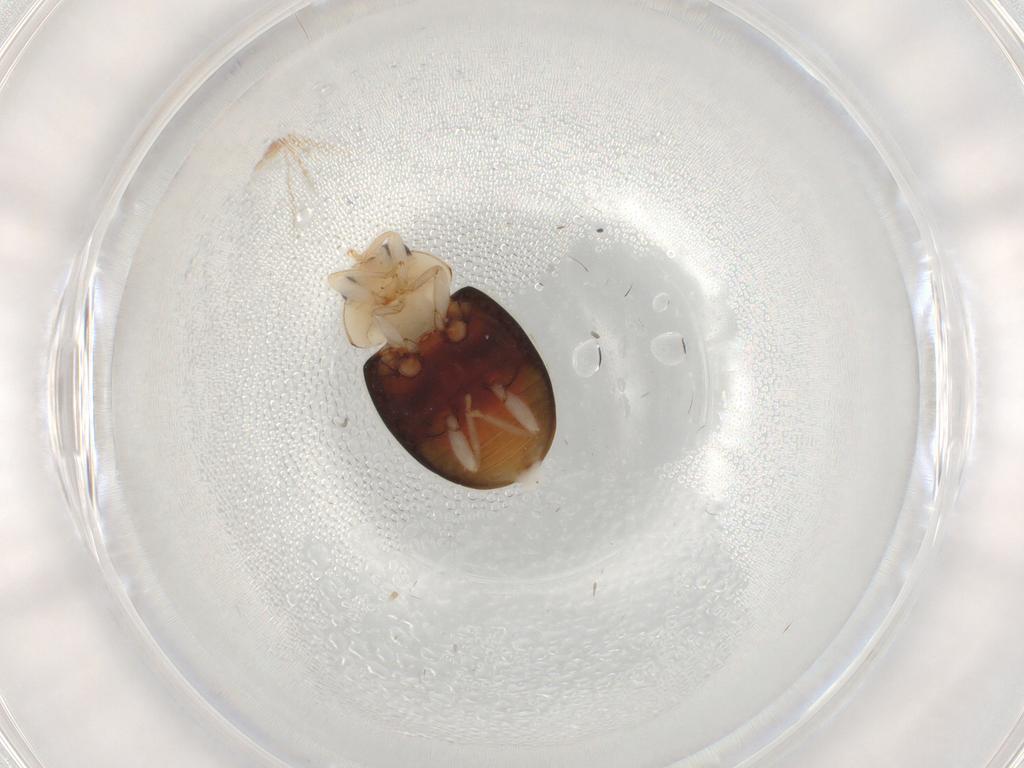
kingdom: Animalia
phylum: Arthropoda
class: Insecta
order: Coleoptera
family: Coccinellidae
